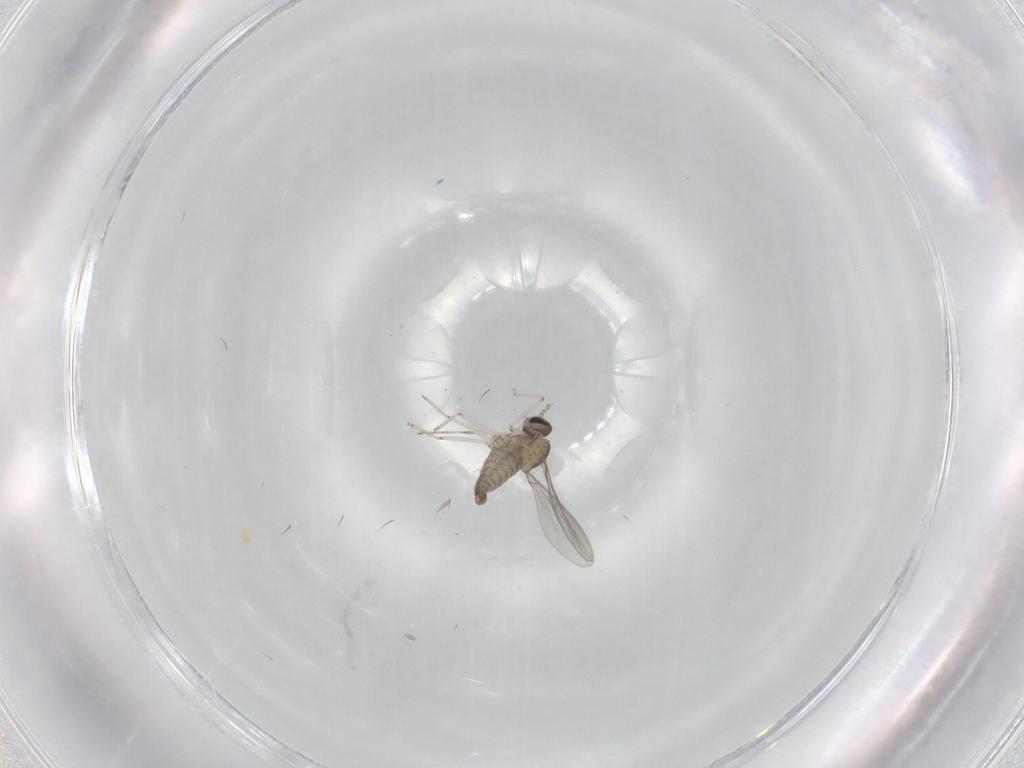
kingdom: Animalia
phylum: Arthropoda
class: Insecta
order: Diptera
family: Cecidomyiidae
